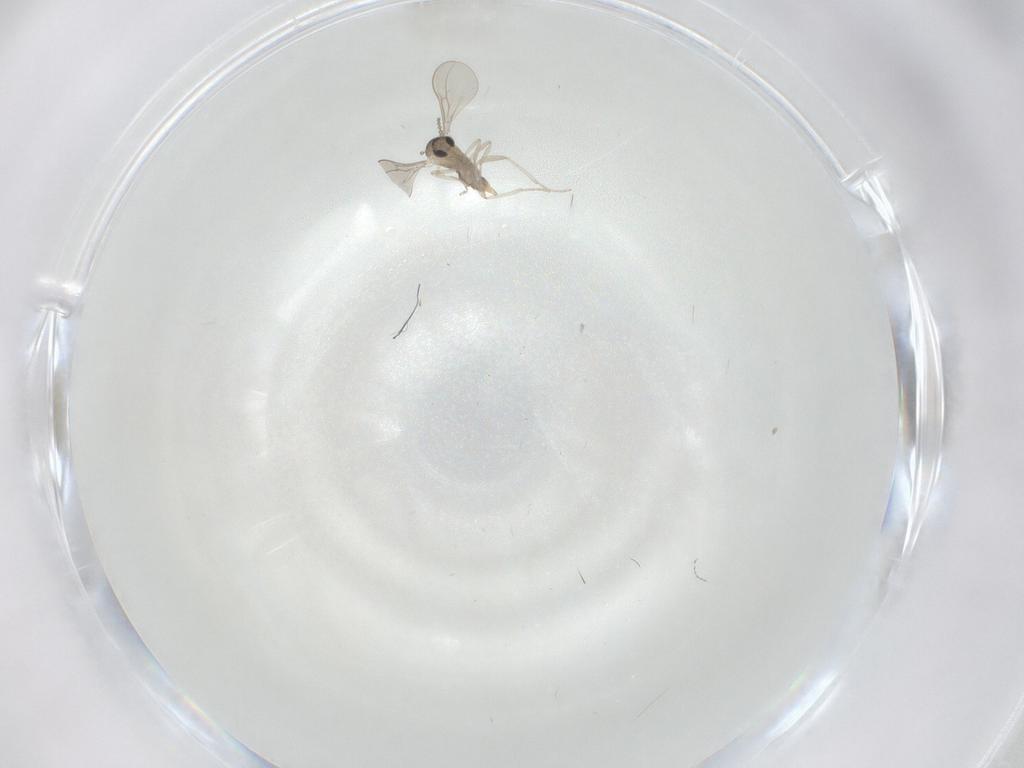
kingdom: Animalia
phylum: Arthropoda
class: Insecta
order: Diptera
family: Cecidomyiidae
